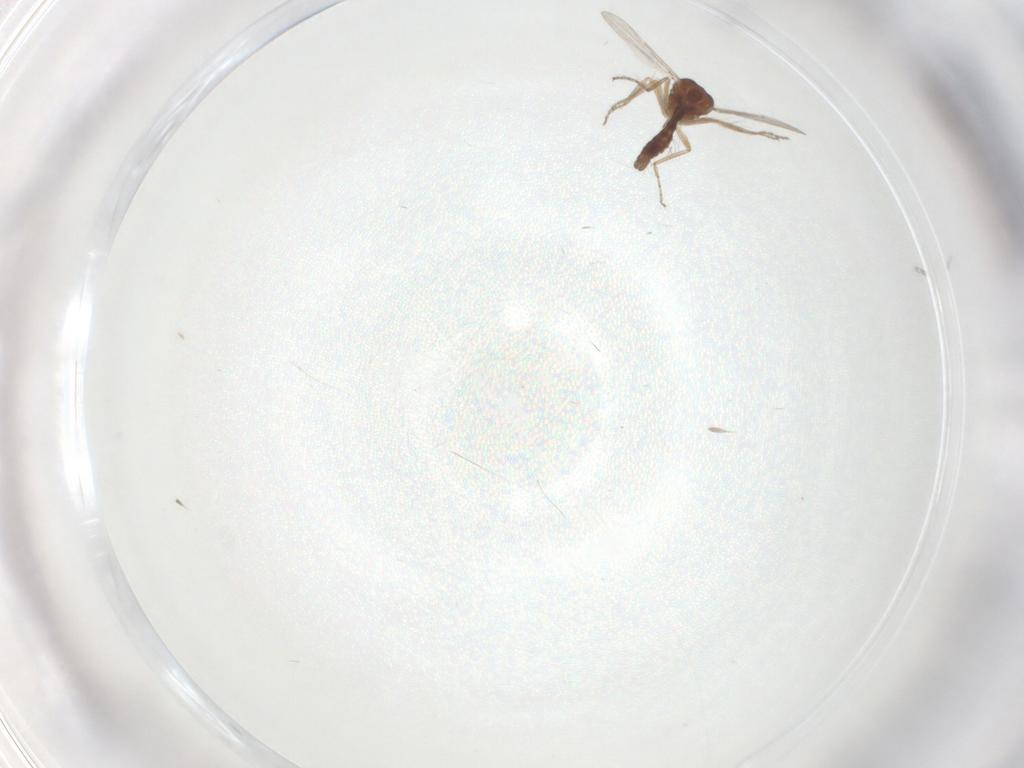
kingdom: Animalia
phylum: Arthropoda
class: Insecta
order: Diptera
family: Ceratopogonidae
